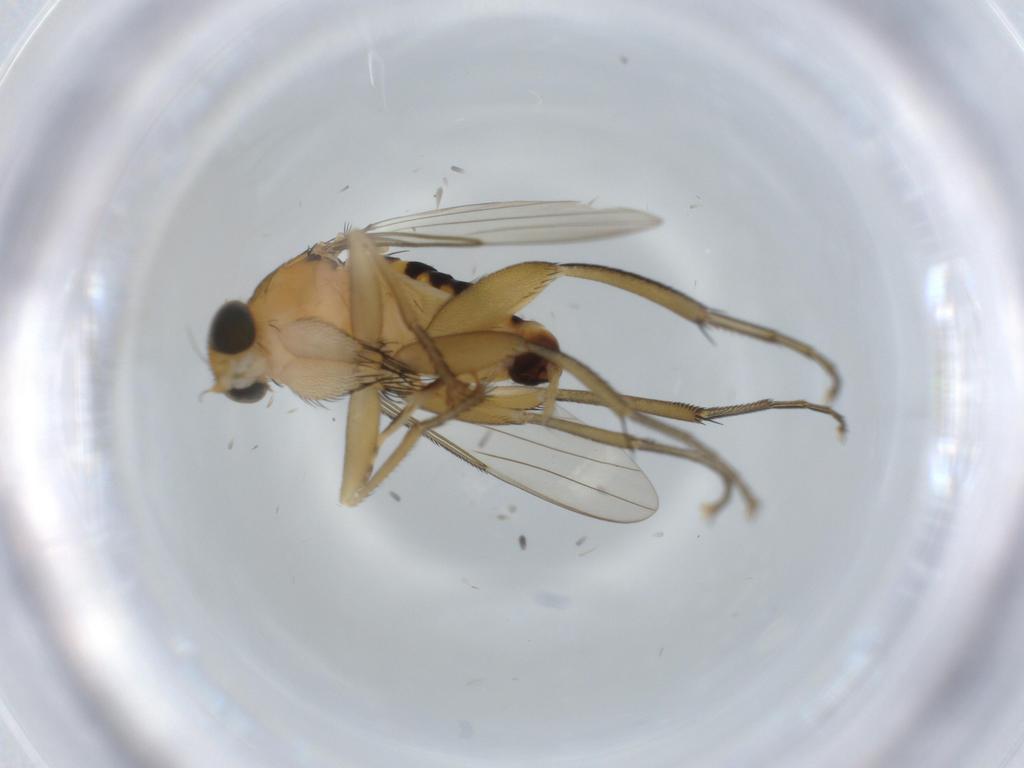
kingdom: Animalia
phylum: Arthropoda
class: Insecta
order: Diptera
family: Phoridae
